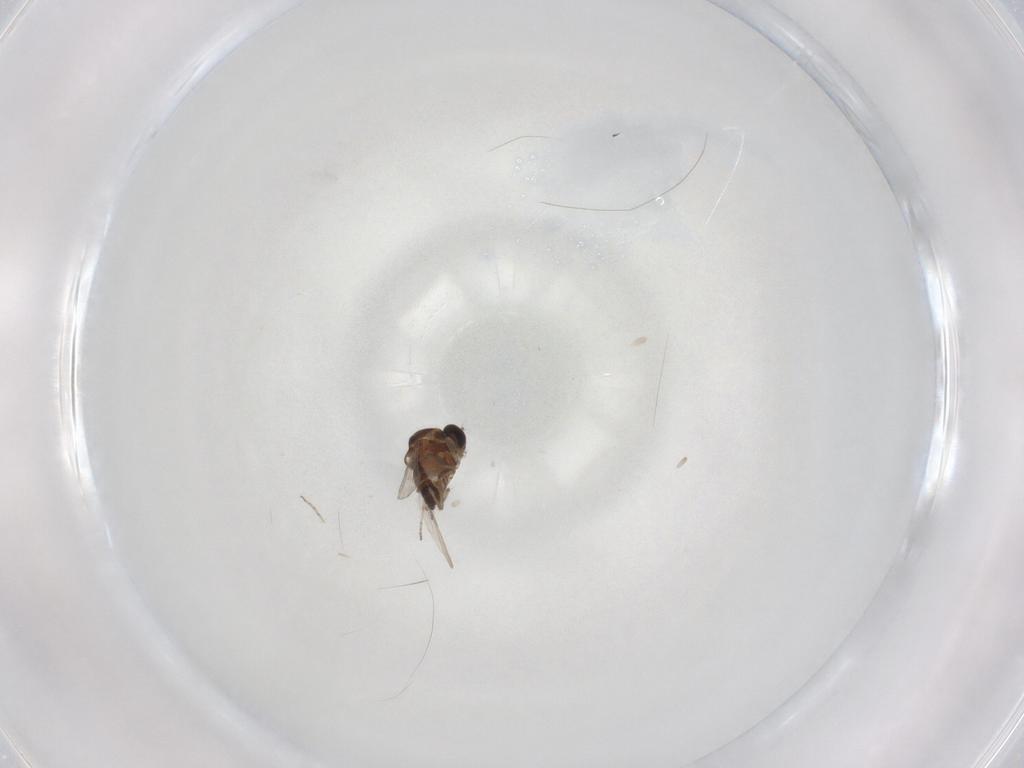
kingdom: Animalia
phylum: Arthropoda
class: Insecta
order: Diptera
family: Ceratopogonidae
